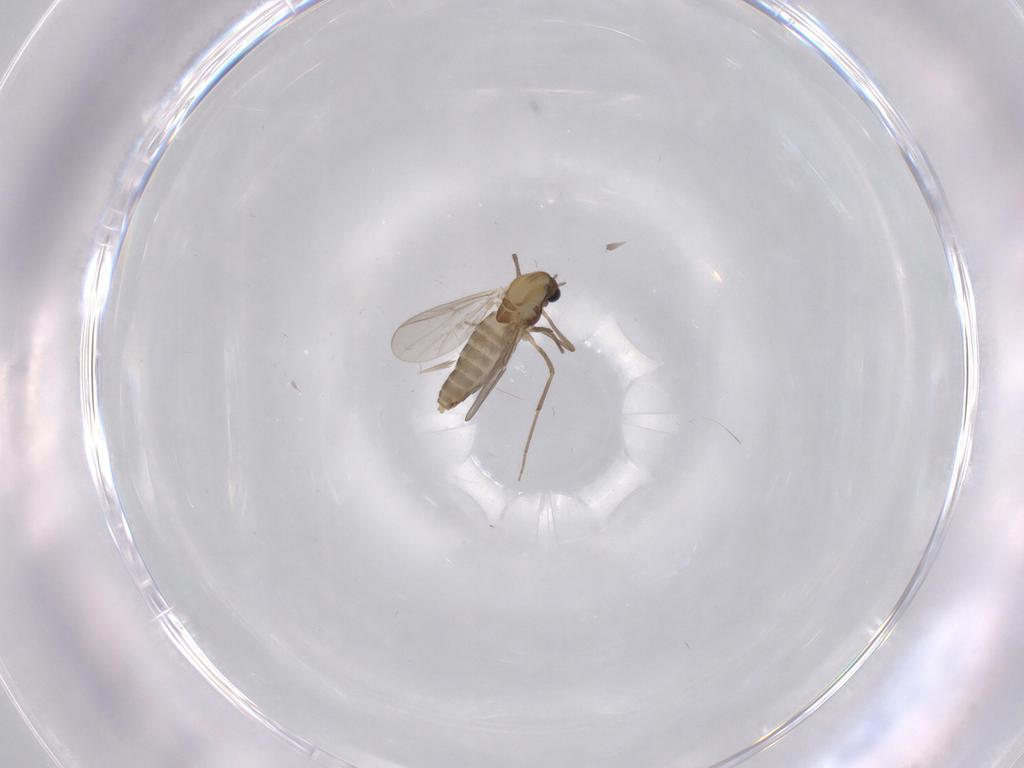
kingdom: Animalia
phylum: Arthropoda
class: Insecta
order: Diptera
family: Chironomidae
